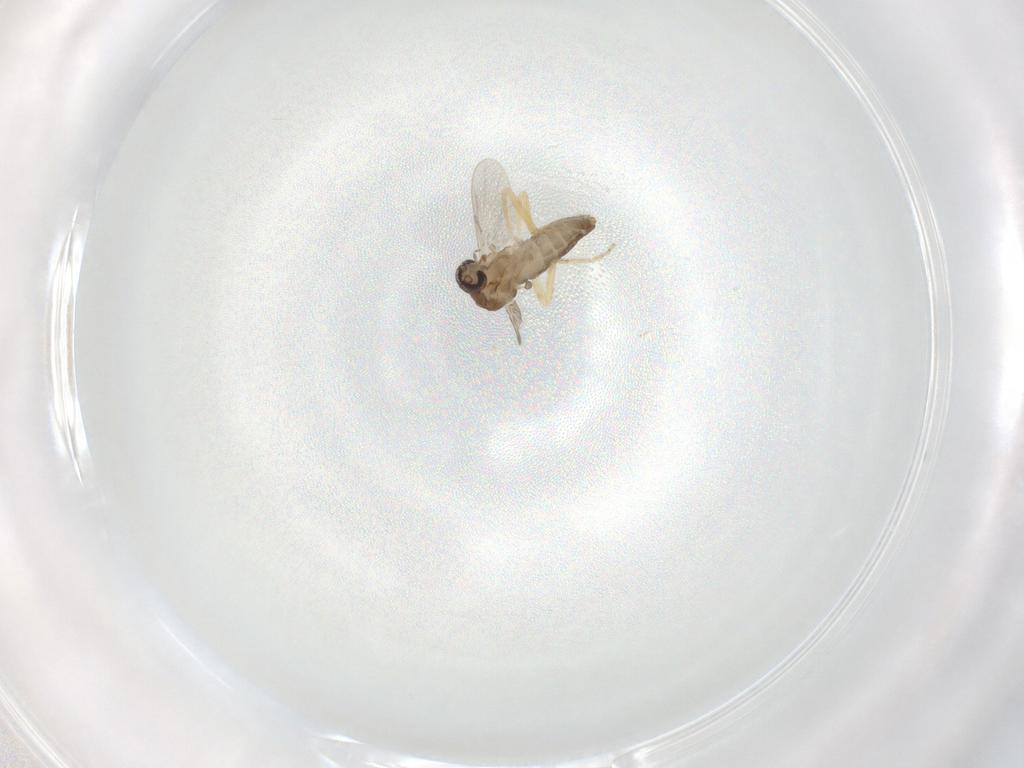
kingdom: Animalia
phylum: Arthropoda
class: Insecta
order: Diptera
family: Ceratopogonidae
